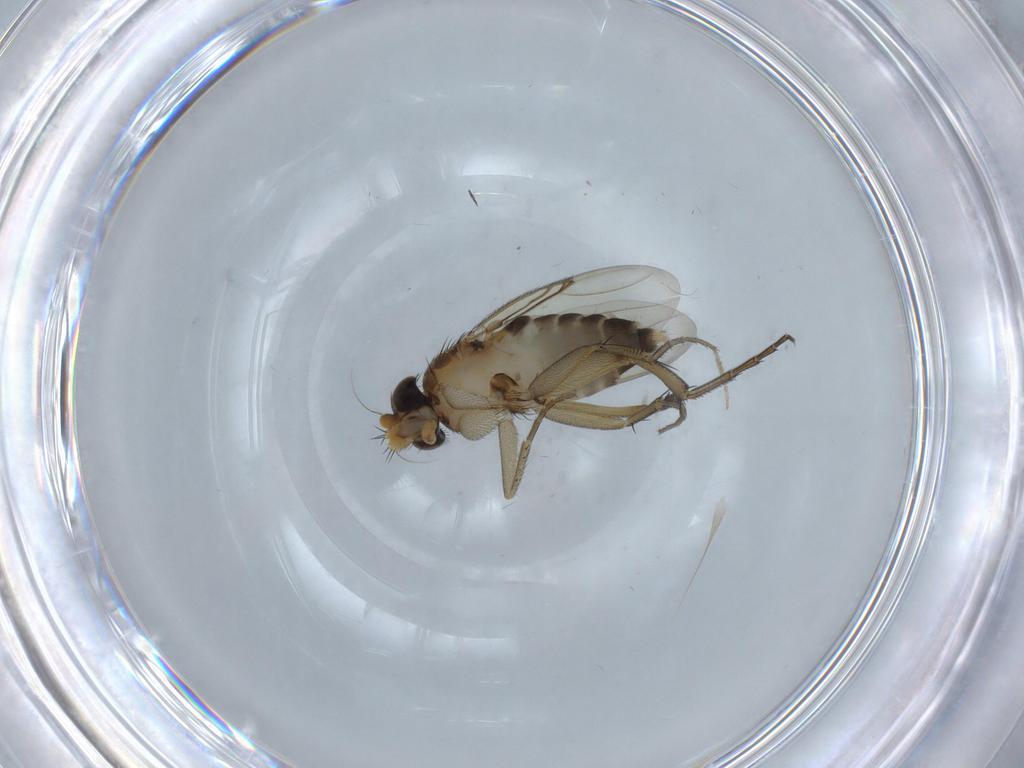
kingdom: Animalia
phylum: Arthropoda
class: Insecta
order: Diptera
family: Phoridae
